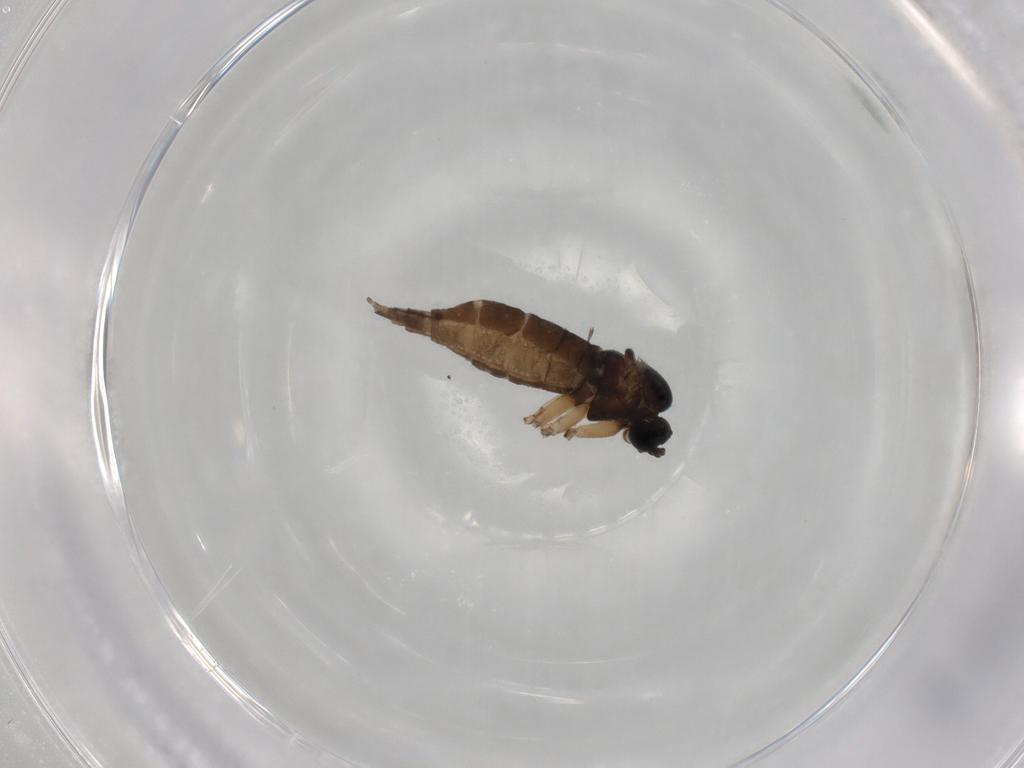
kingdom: Animalia
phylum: Arthropoda
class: Insecta
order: Diptera
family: Sciaridae
